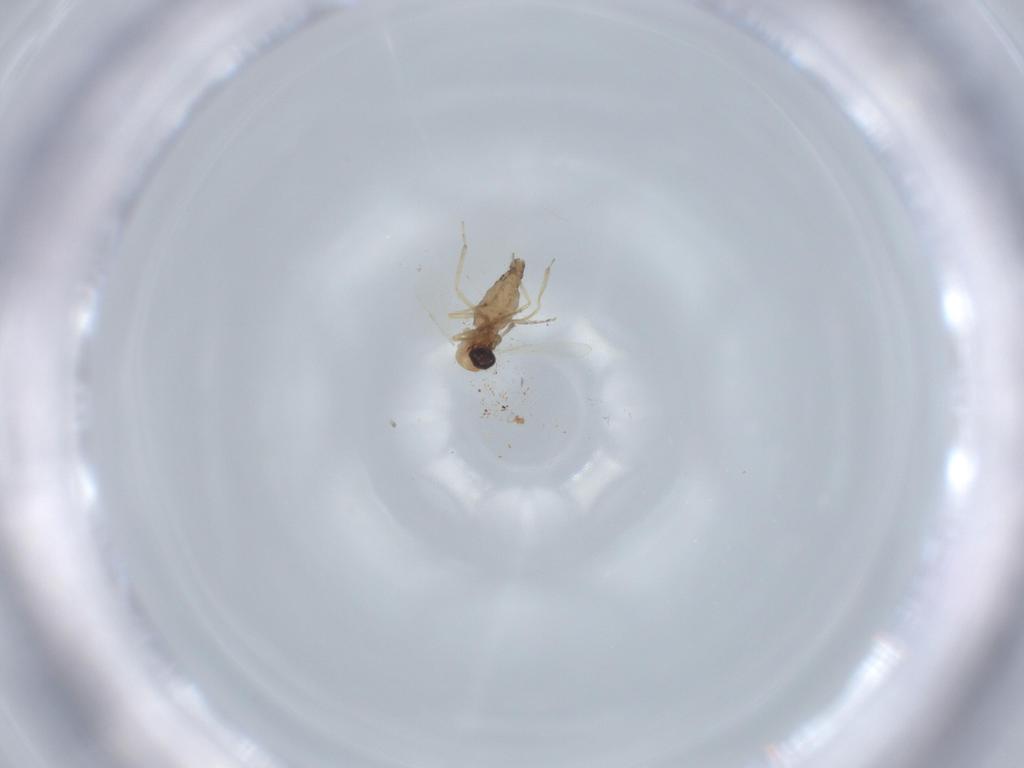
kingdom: Animalia
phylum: Arthropoda
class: Insecta
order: Diptera
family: Ceratopogonidae
